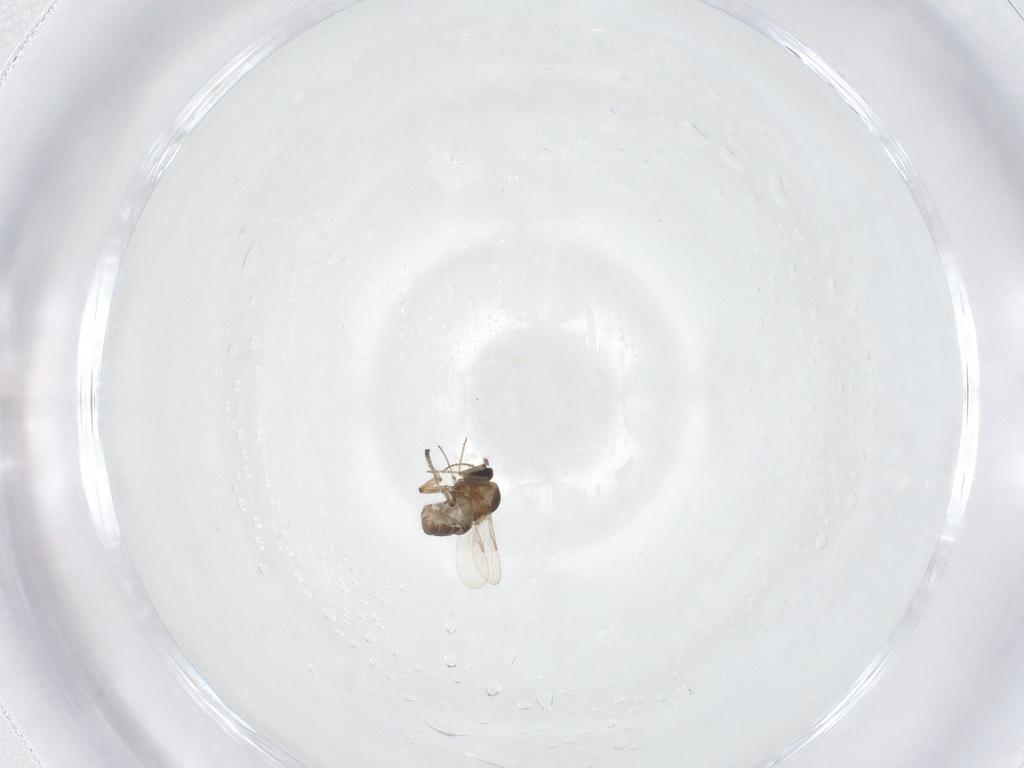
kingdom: Animalia
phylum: Arthropoda
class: Insecta
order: Diptera
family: Ceratopogonidae
